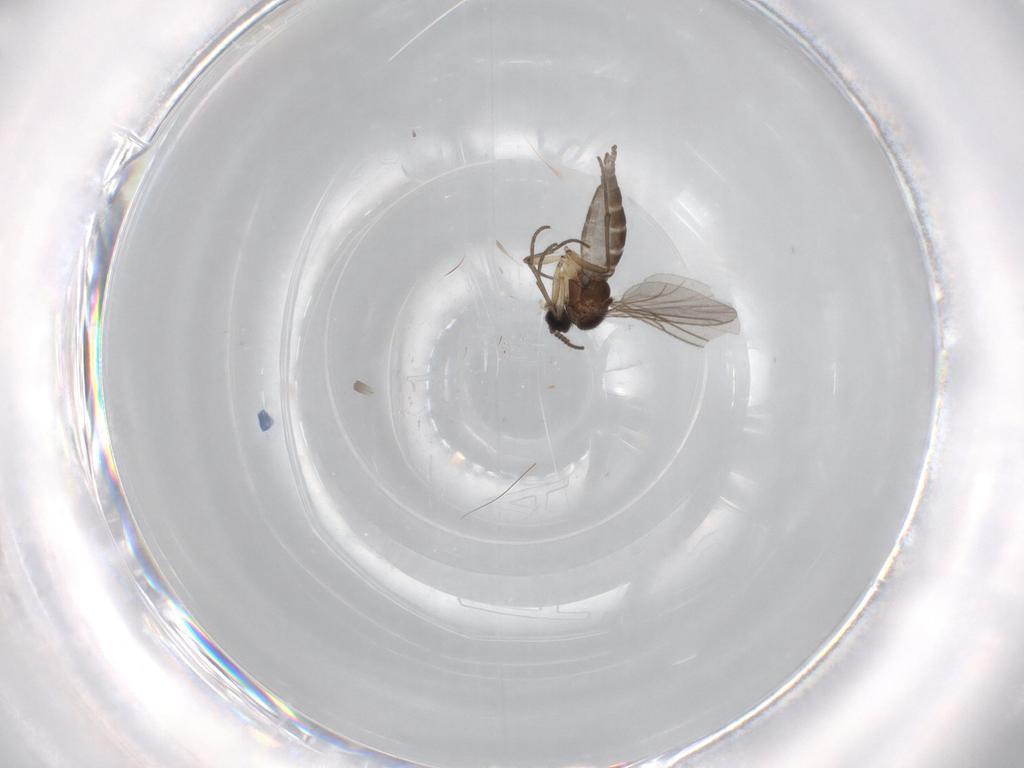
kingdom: Animalia
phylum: Arthropoda
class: Insecta
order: Diptera
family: Sciaridae
